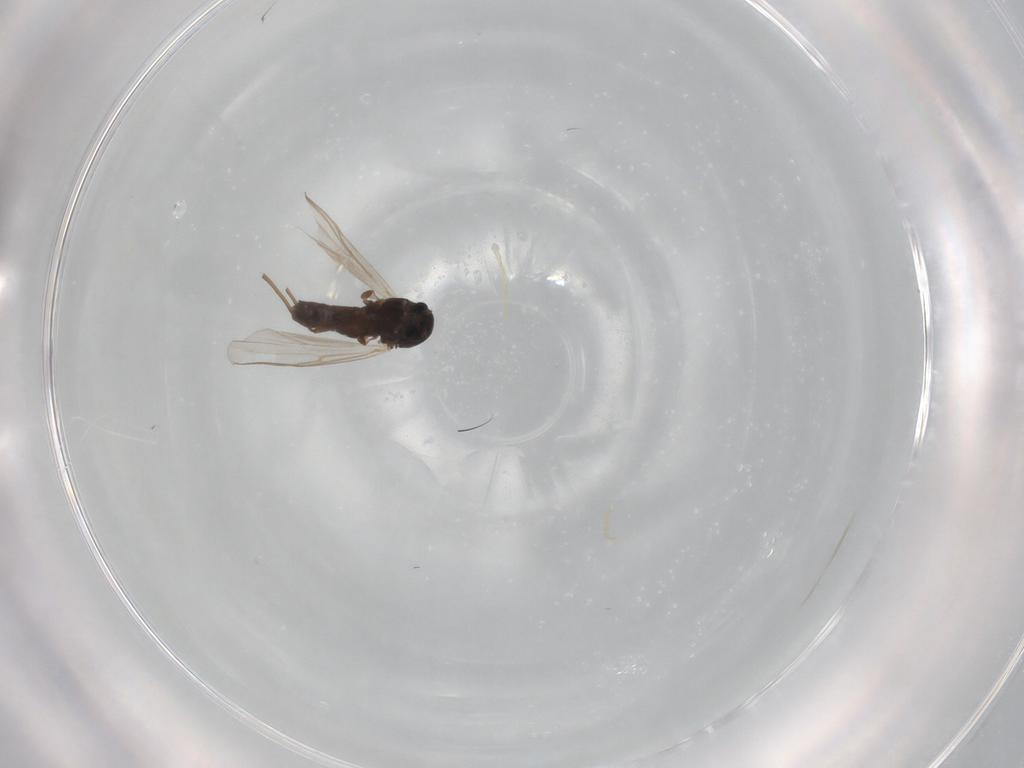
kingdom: Animalia
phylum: Arthropoda
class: Insecta
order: Diptera
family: Chironomidae
